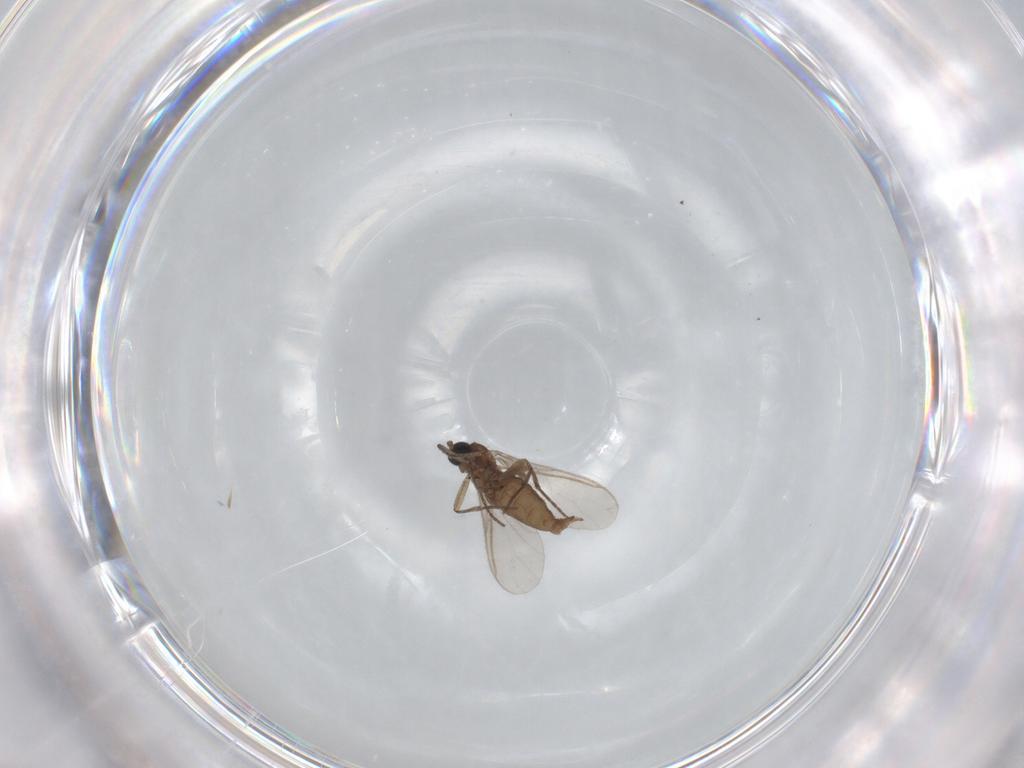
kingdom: Animalia
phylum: Arthropoda
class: Insecta
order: Diptera
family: Sciaridae
